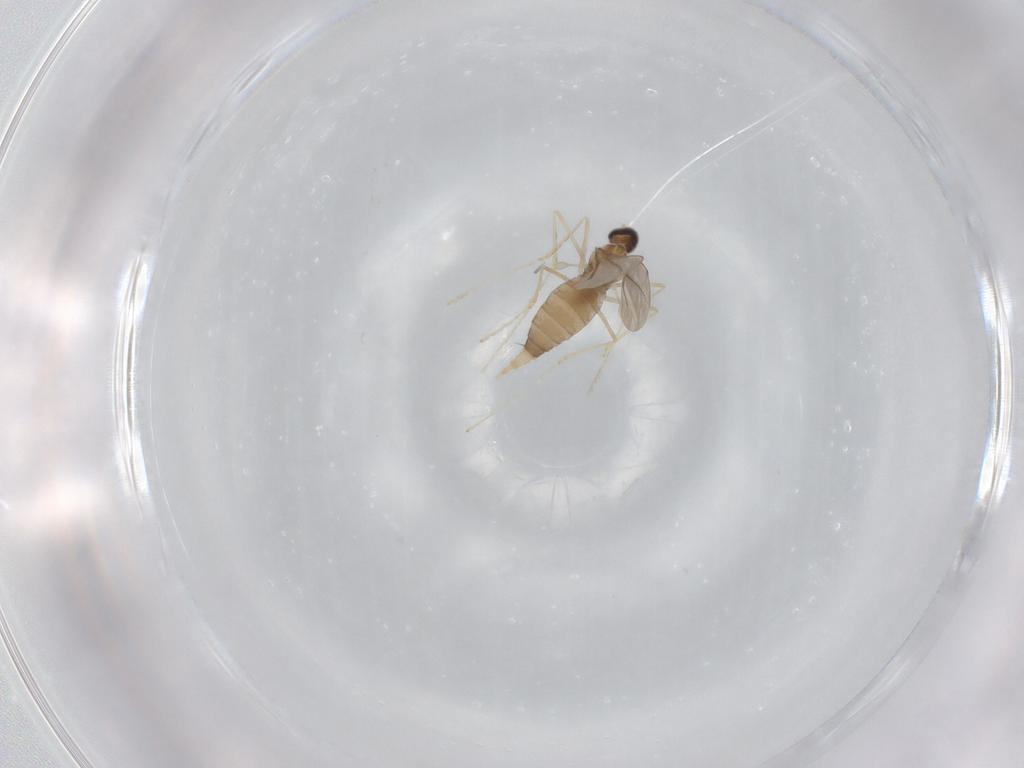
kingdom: Animalia
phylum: Arthropoda
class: Insecta
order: Diptera
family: Cecidomyiidae
